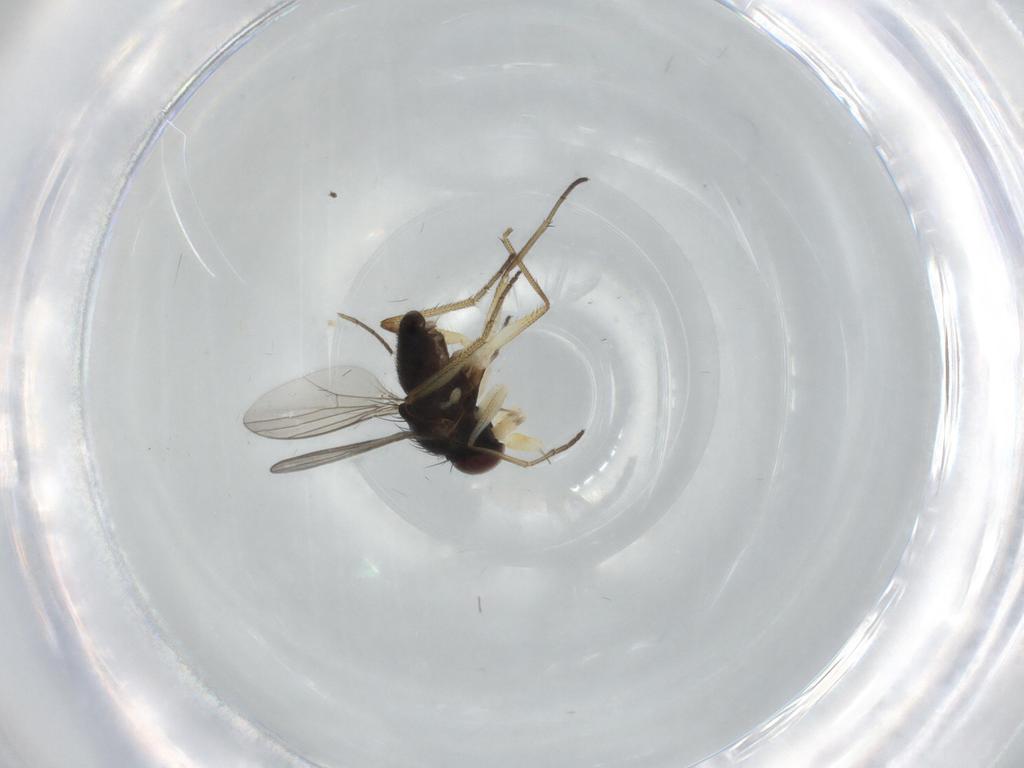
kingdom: Animalia
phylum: Arthropoda
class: Insecta
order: Diptera
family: Dolichopodidae
